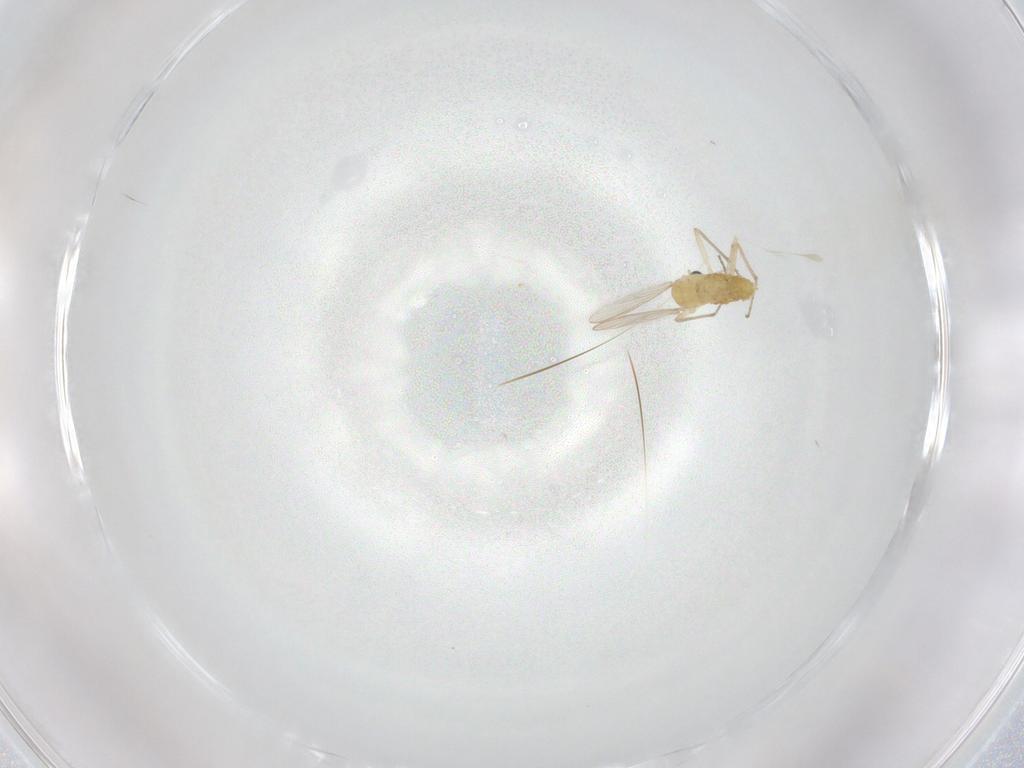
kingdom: Animalia
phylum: Arthropoda
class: Insecta
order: Diptera
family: Chironomidae
